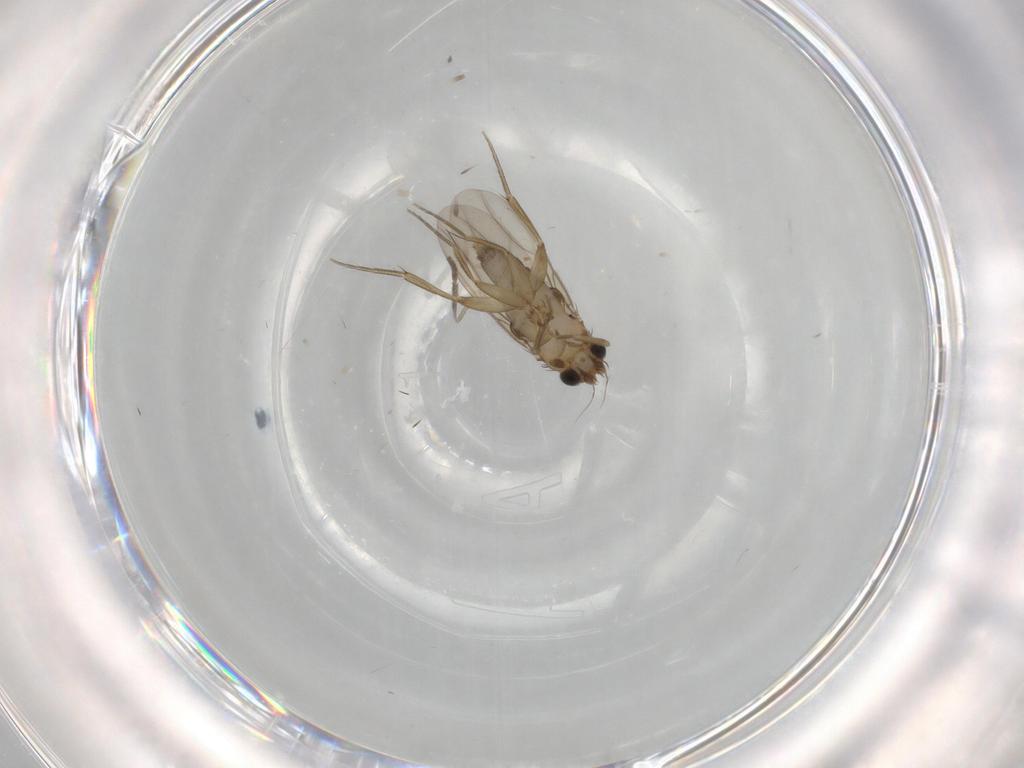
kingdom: Animalia
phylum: Arthropoda
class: Insecta
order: Diptera
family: Phoridae
